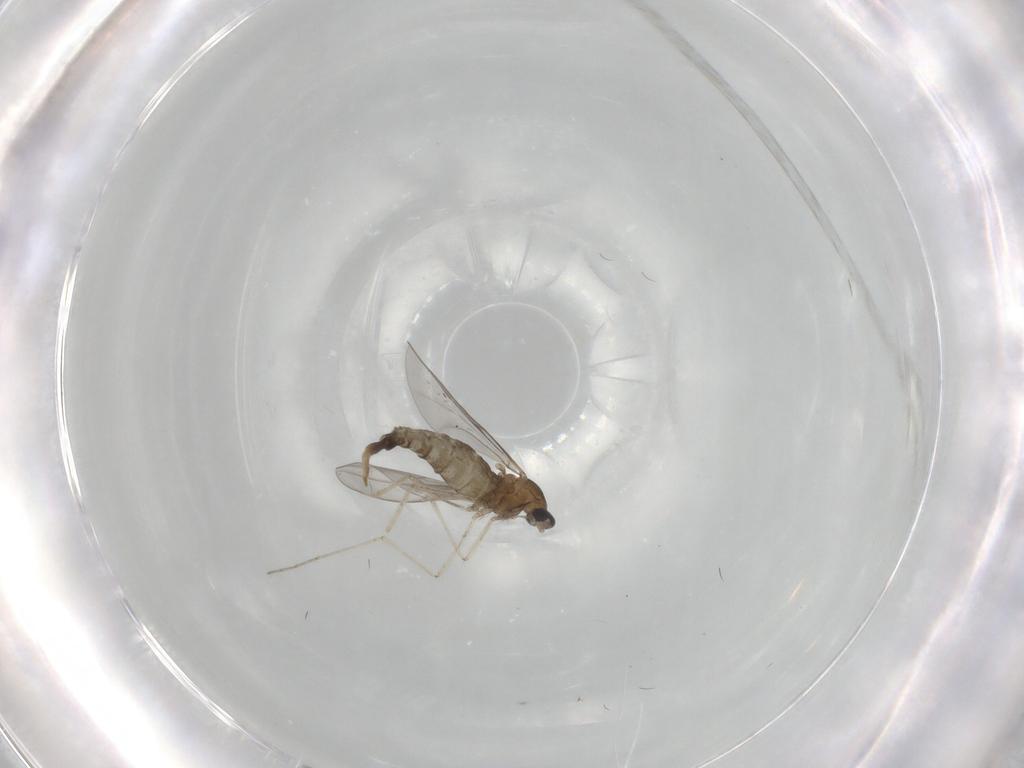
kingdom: Animalia
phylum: Arthropoda
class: Insecta
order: Diptera
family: Cecidomyiidae
